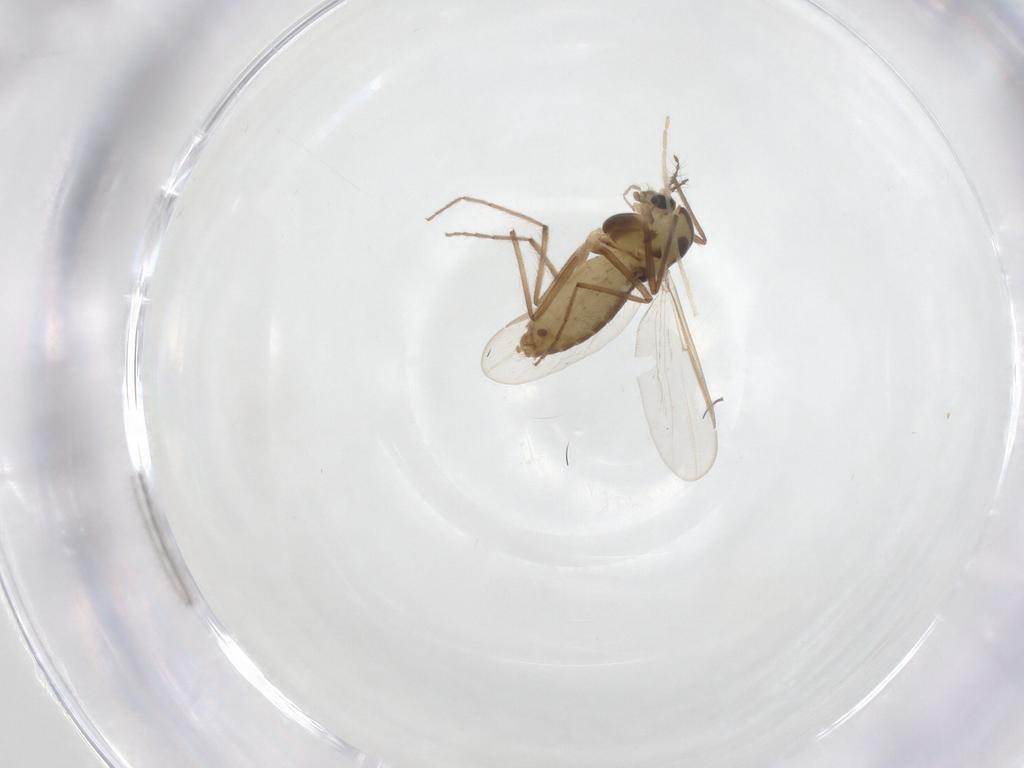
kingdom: Animalia
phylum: Arthropoda
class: Insecta
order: Diptera
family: Chironomidae
